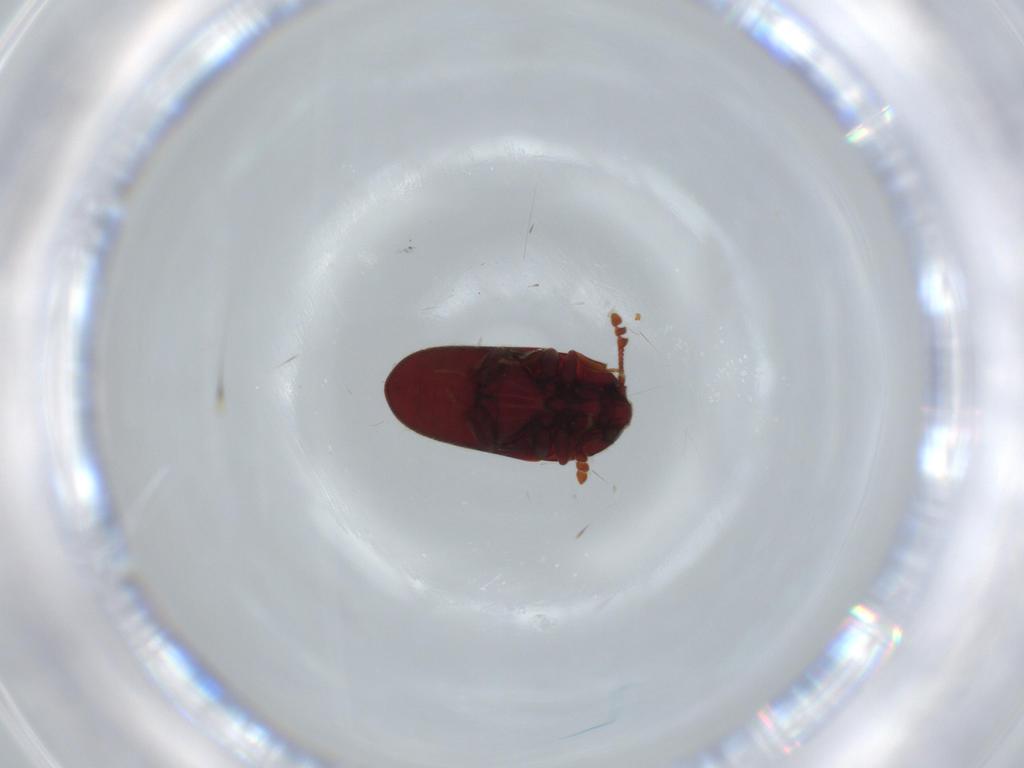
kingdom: Animalia
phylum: Arthropoda
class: Insecta
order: Coleoptera
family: Throscidae
